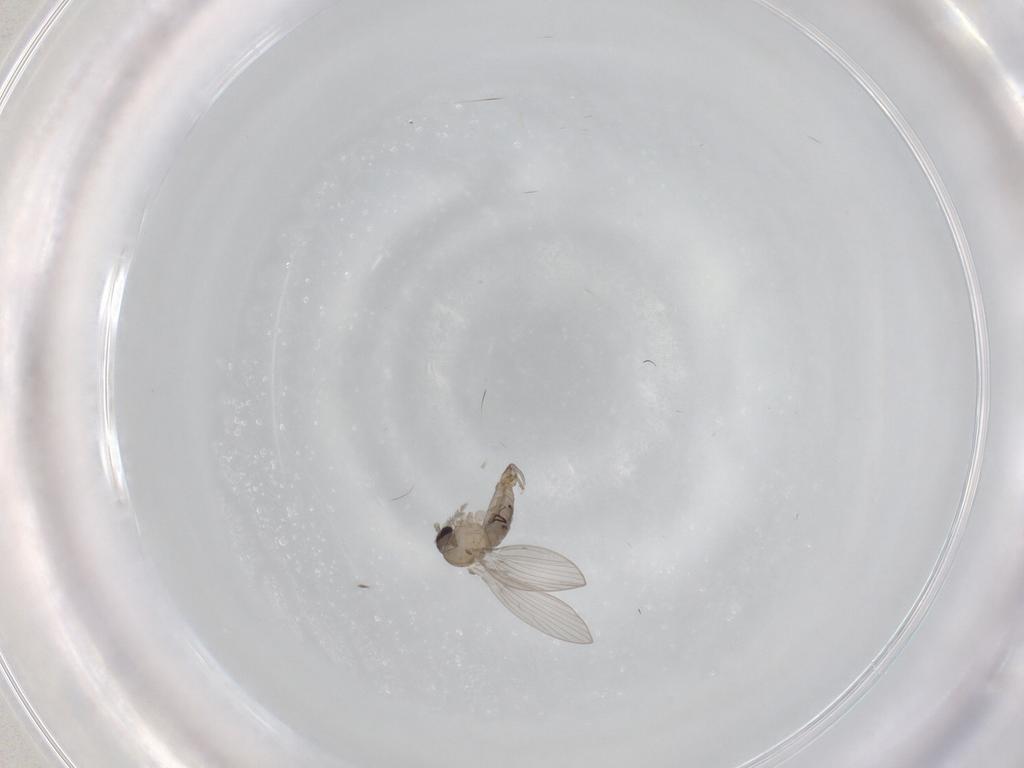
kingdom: Animalia
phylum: Arthropoda
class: Insecta
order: Diptera
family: Psychodidae
